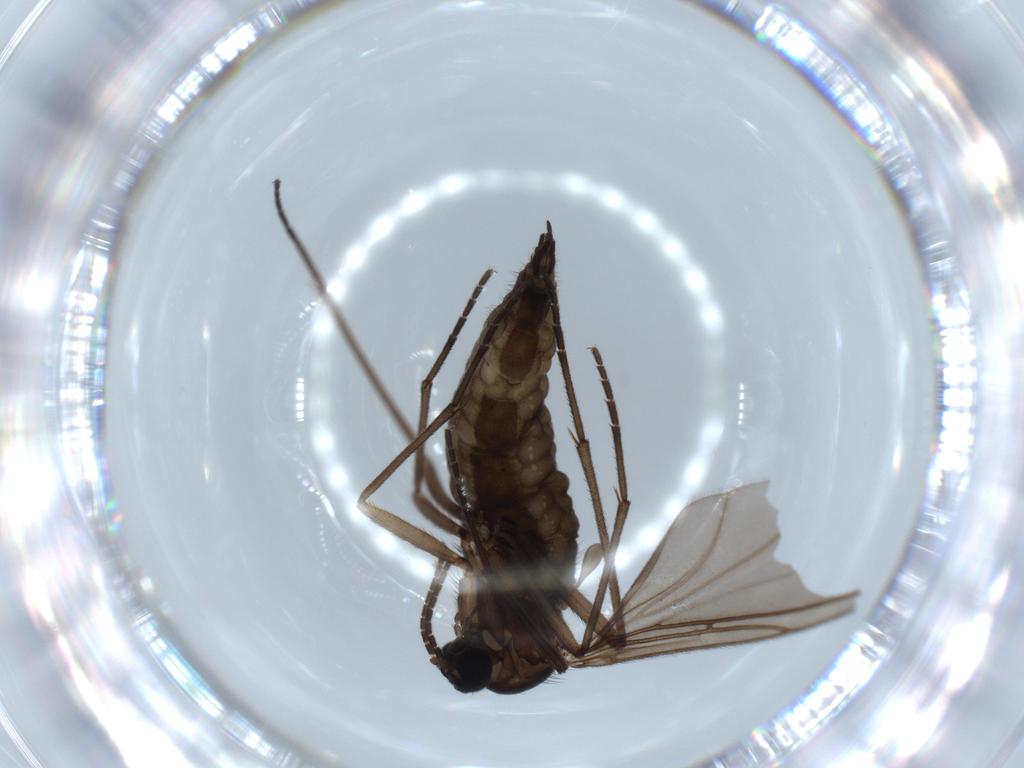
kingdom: Animalia
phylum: Arthropoda
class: Insecta
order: Diptera
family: Sciaridae
